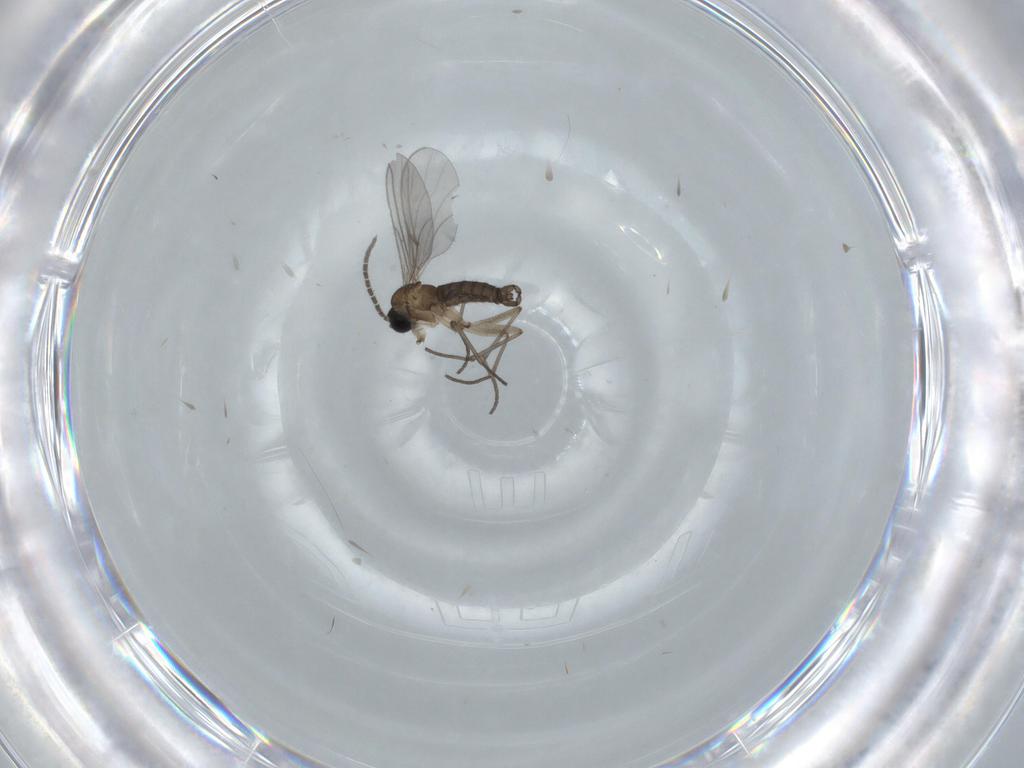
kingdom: Animalia
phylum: Arthropoda
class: Insecta
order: Diptera
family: Sciaridae
